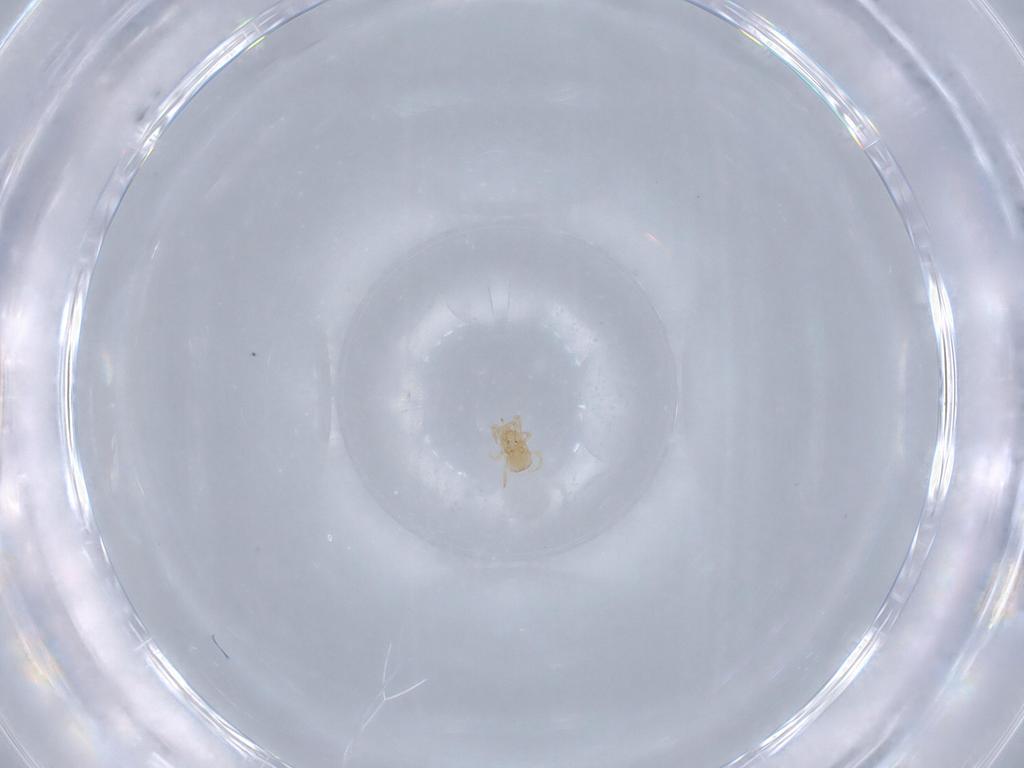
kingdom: Animalia
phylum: Arthropoda
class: Arachnida
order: Mesostigmata
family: Blattisociidae
